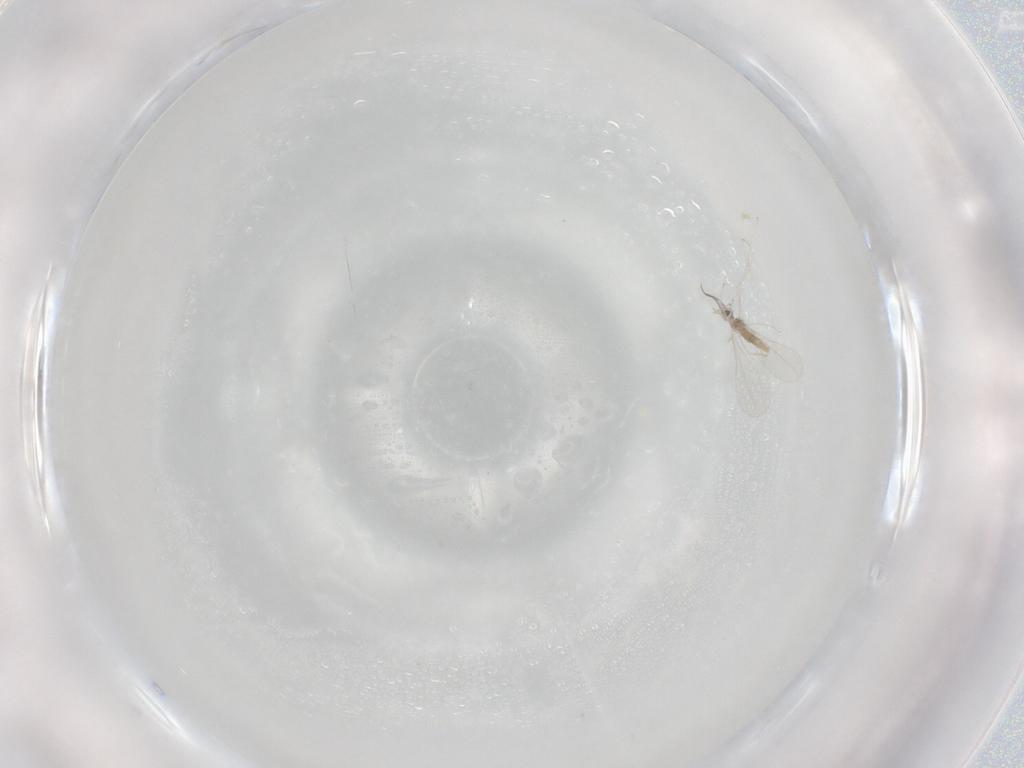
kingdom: Animalia
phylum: Arthropoda
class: Insecta
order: Diptera
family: Cecidomyiidae
